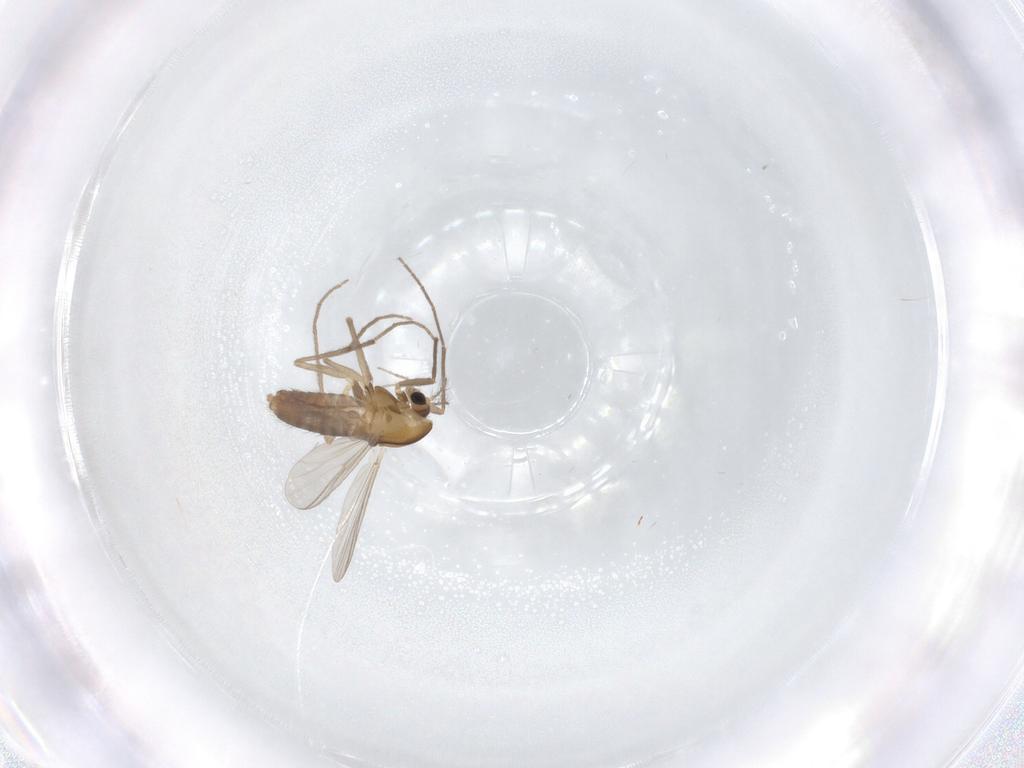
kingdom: Animalia
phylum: Arthropoda
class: Insecta
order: Diptera
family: Chironomidae
